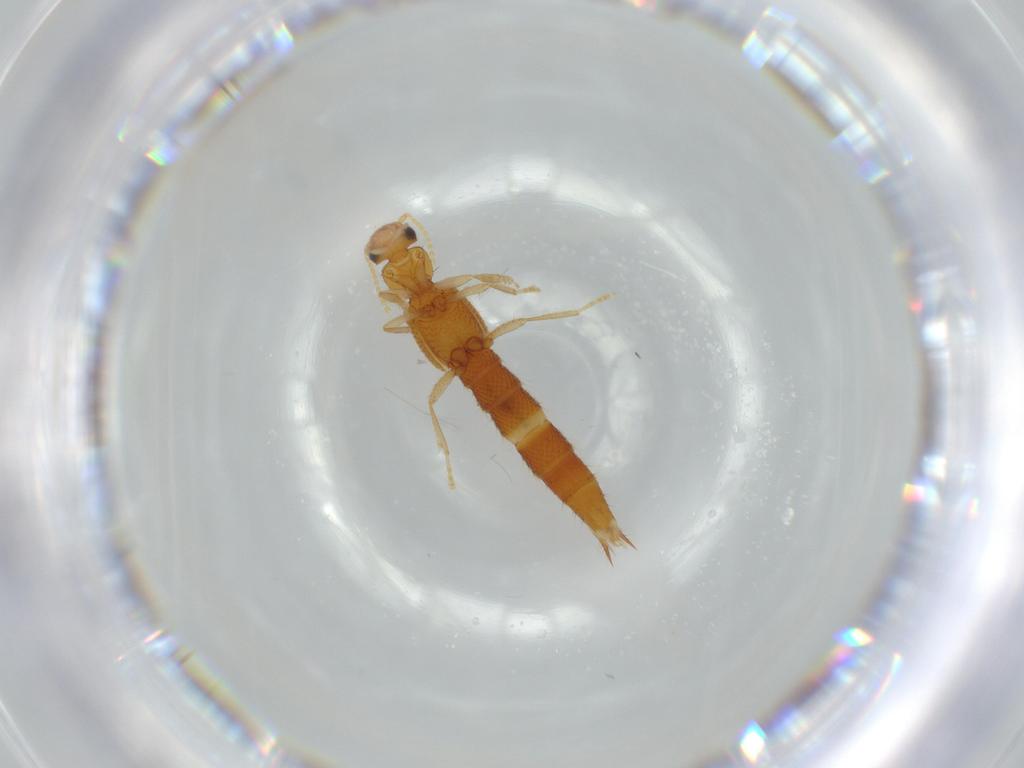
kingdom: Animalia
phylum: Arthropoda
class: Insecta
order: Coleoptera
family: Staphylinidae
